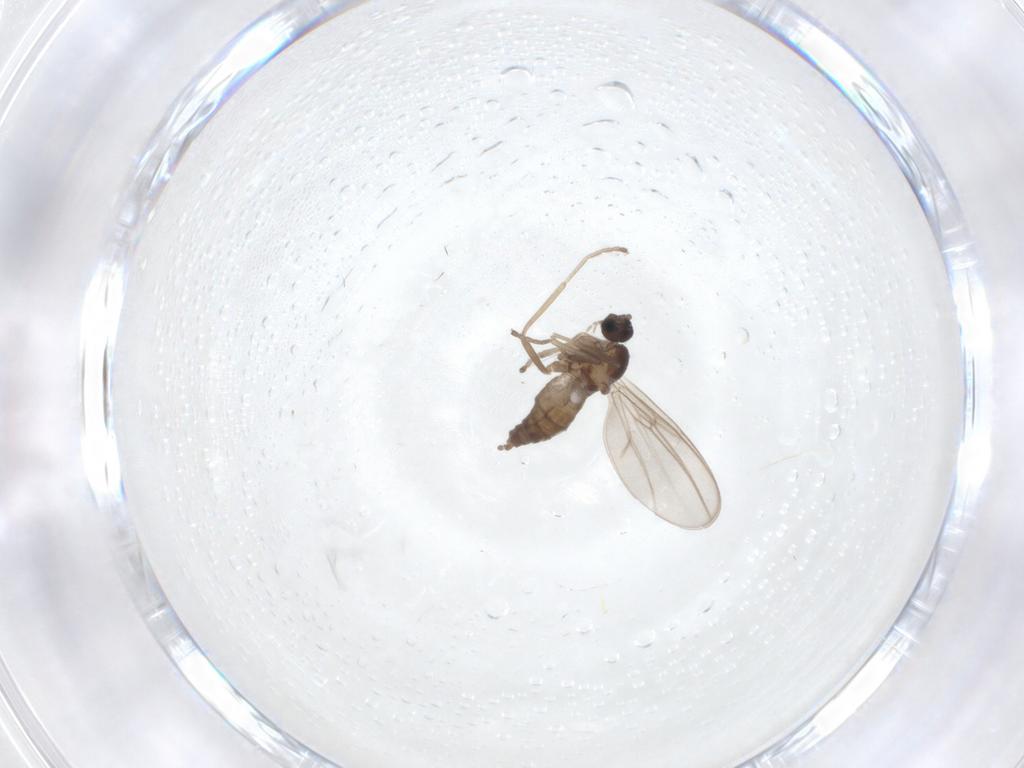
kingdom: Animalia
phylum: Arthropoda
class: Insecta
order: Diptera
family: Cecidomyiidae
